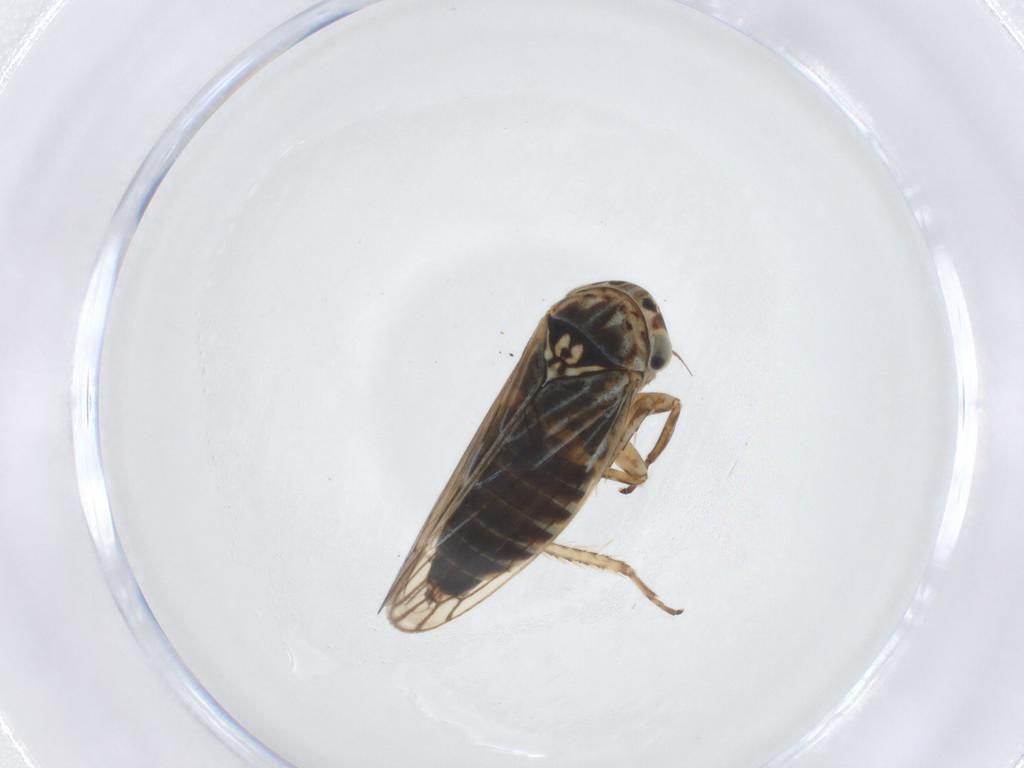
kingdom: Animalia
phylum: Arthropoda
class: Insecta
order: Hemiptera
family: Cicadellidae
